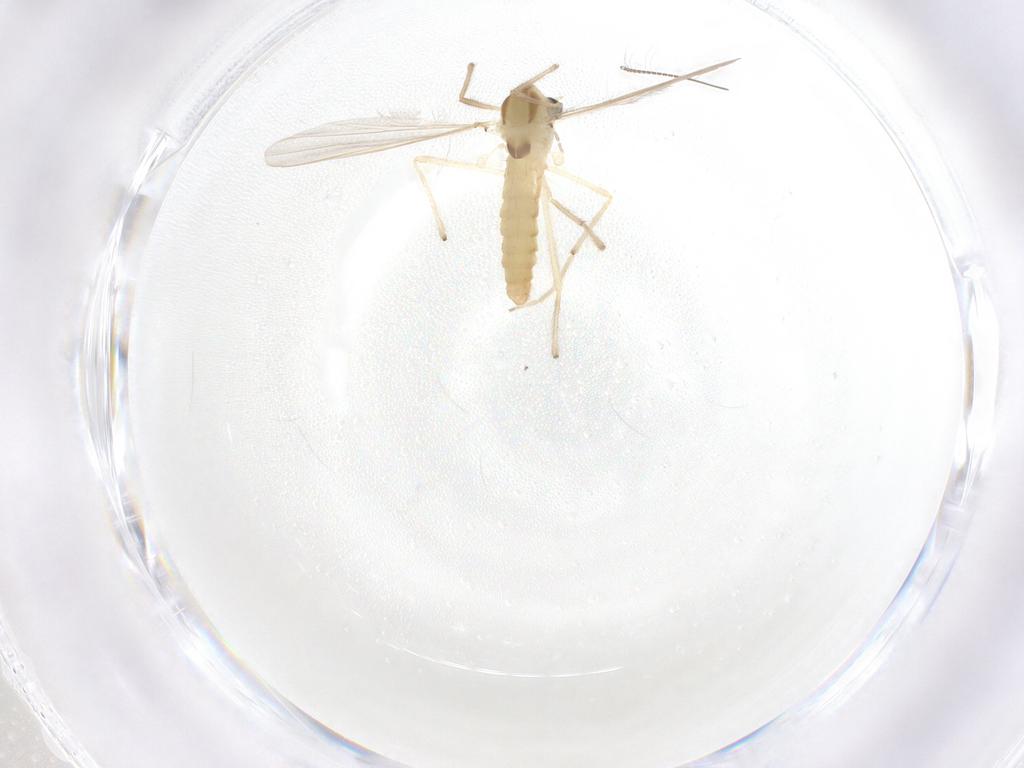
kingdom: Animalia
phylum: Arthropoda
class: Insecta
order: Diptera
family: Chironomidae
